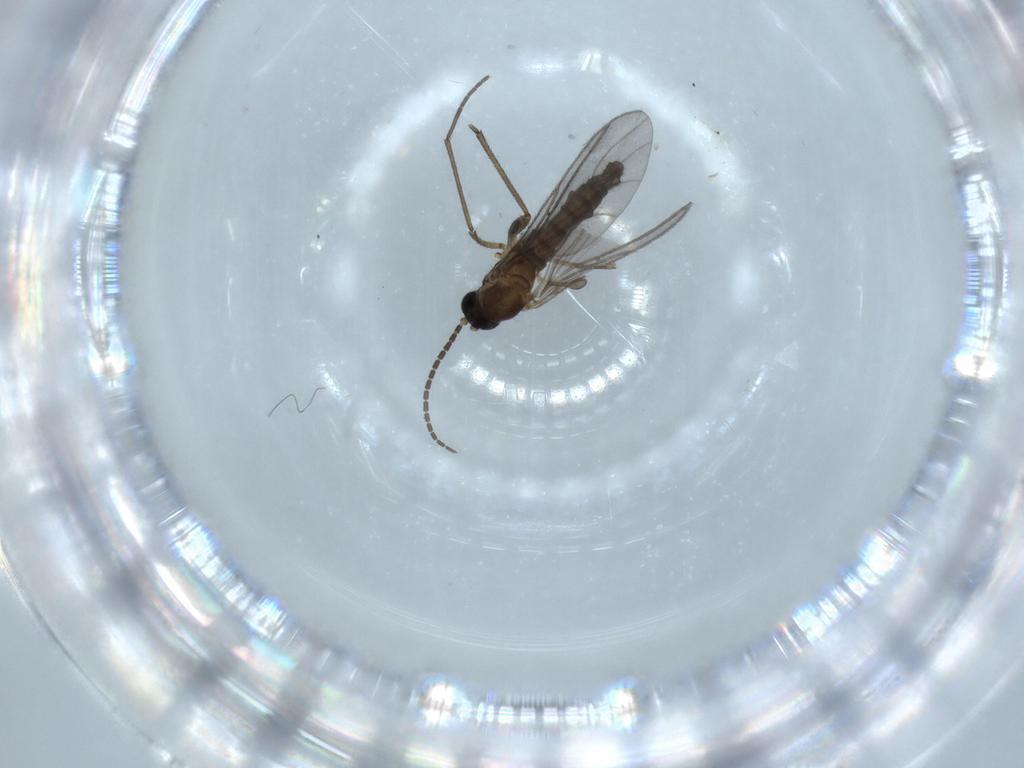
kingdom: Animalia
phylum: Arthropoda
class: Insecta
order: Diptera
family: Sciaridae
